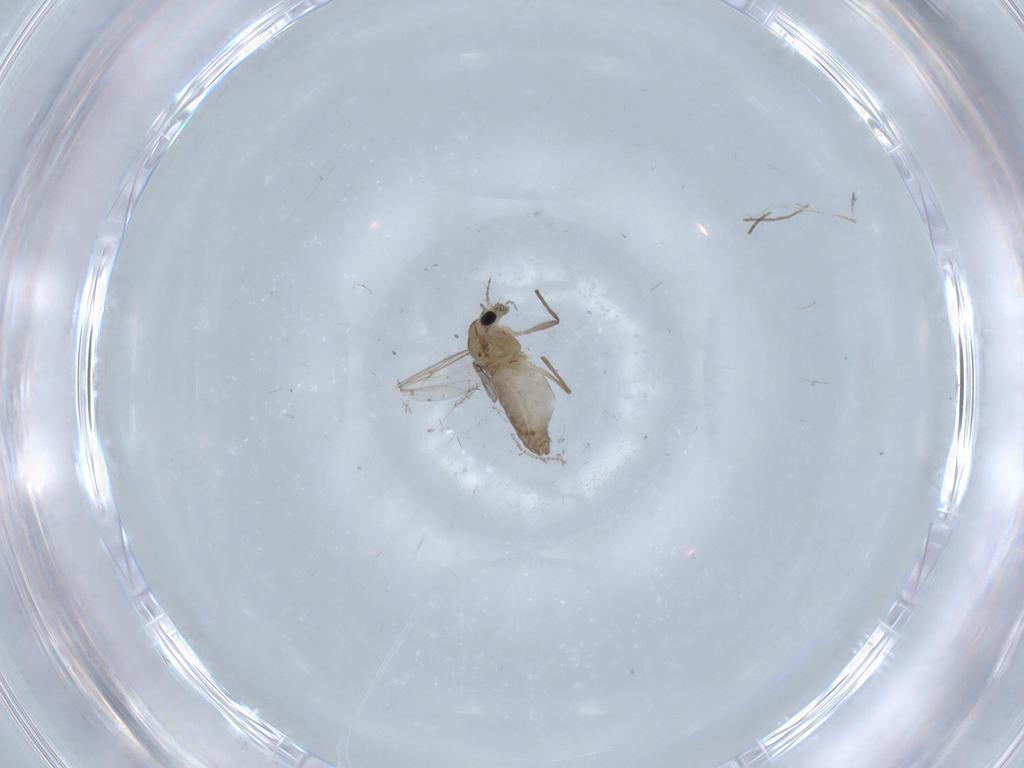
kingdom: Animalia
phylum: Arthropoda
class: Insecta
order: Diptera
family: Chironomidae
